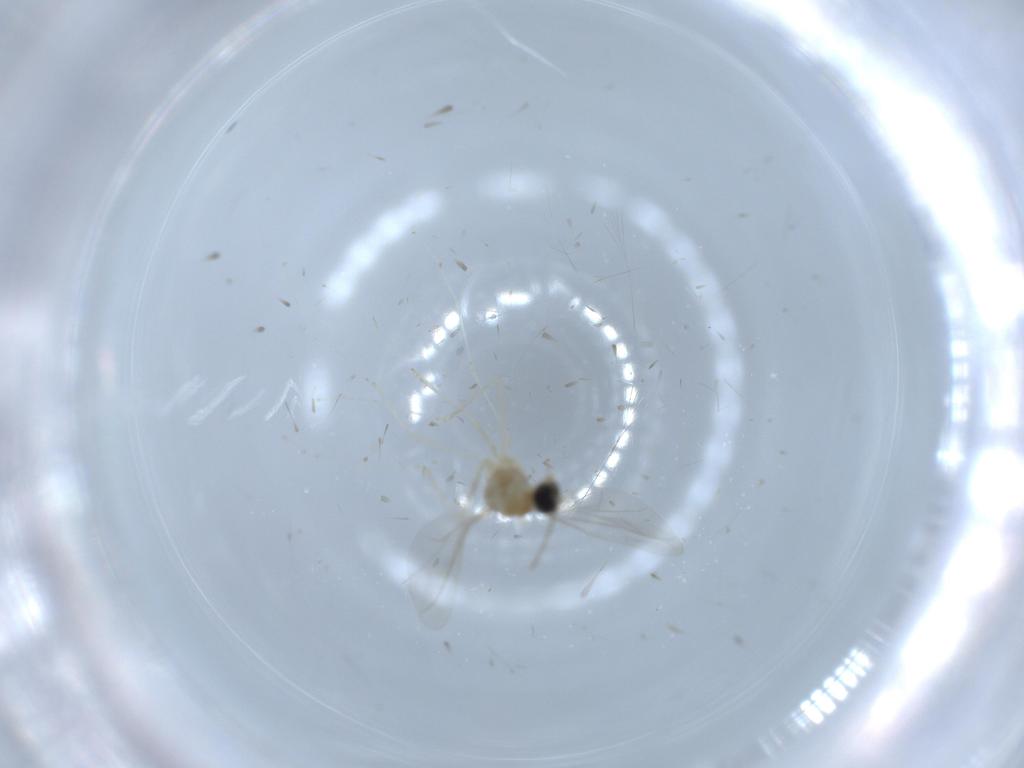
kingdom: Animalia
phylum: Arthropoda
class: Insecta
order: Diptera
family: Cecidomyiidae
